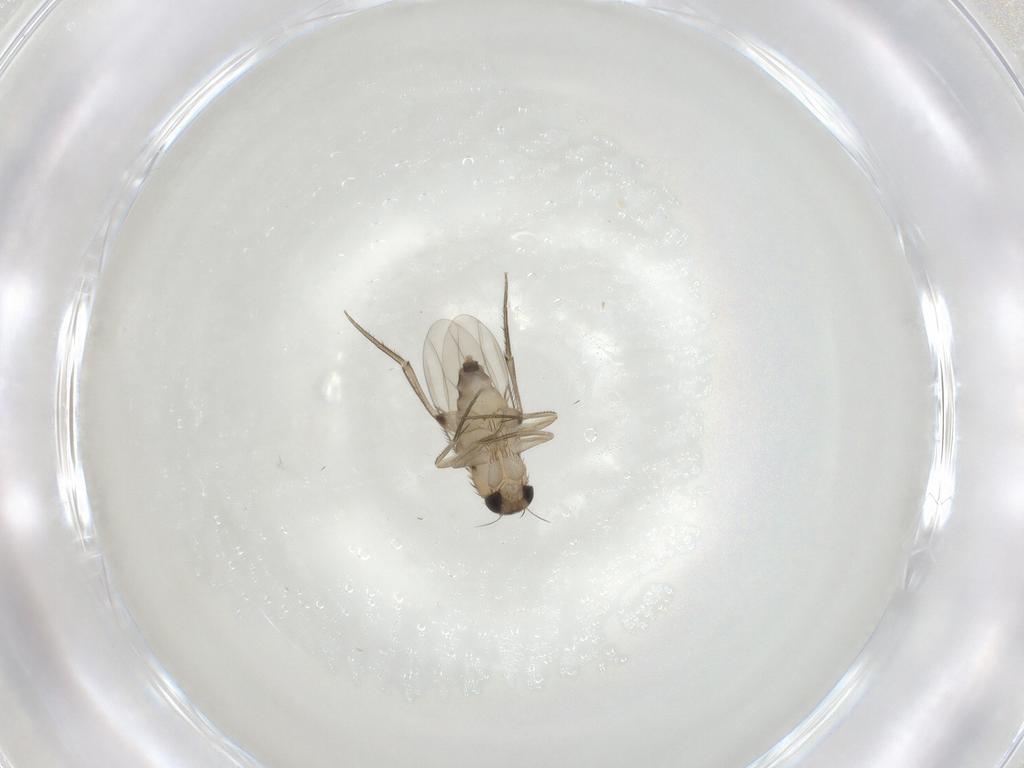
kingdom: Animalia
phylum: Arthropoda
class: Insecta
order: Diptera
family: Phoridae
